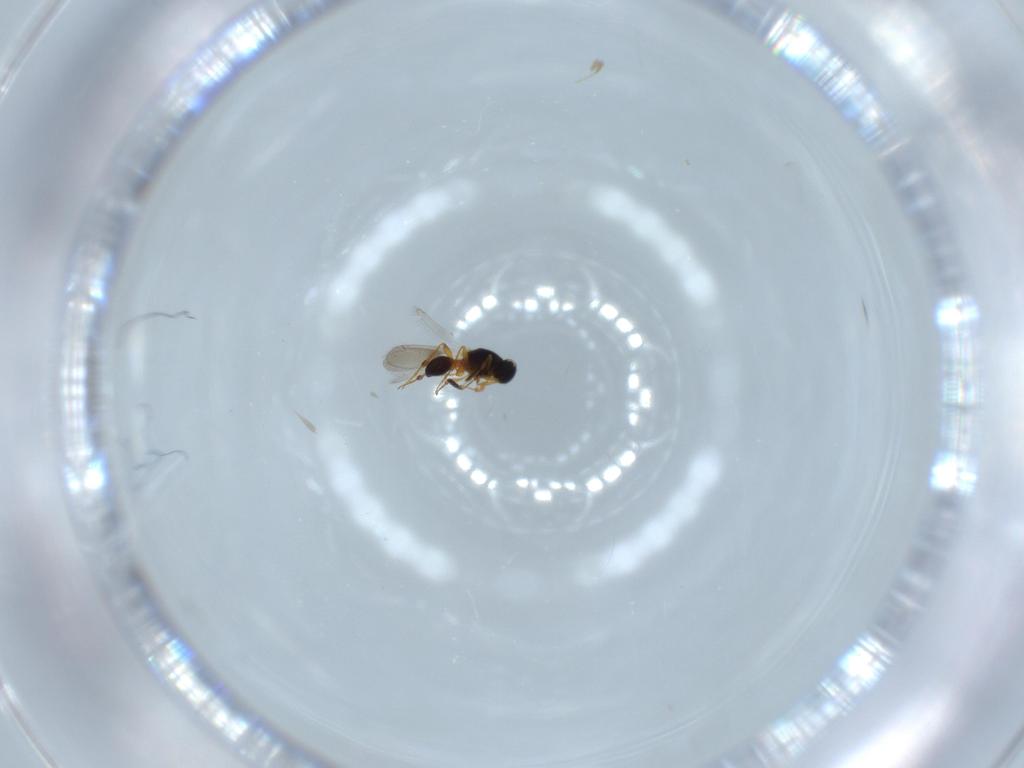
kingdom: Animalia
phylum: Arthropoda
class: Insecta
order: Hymenoptera
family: Platygastridae
